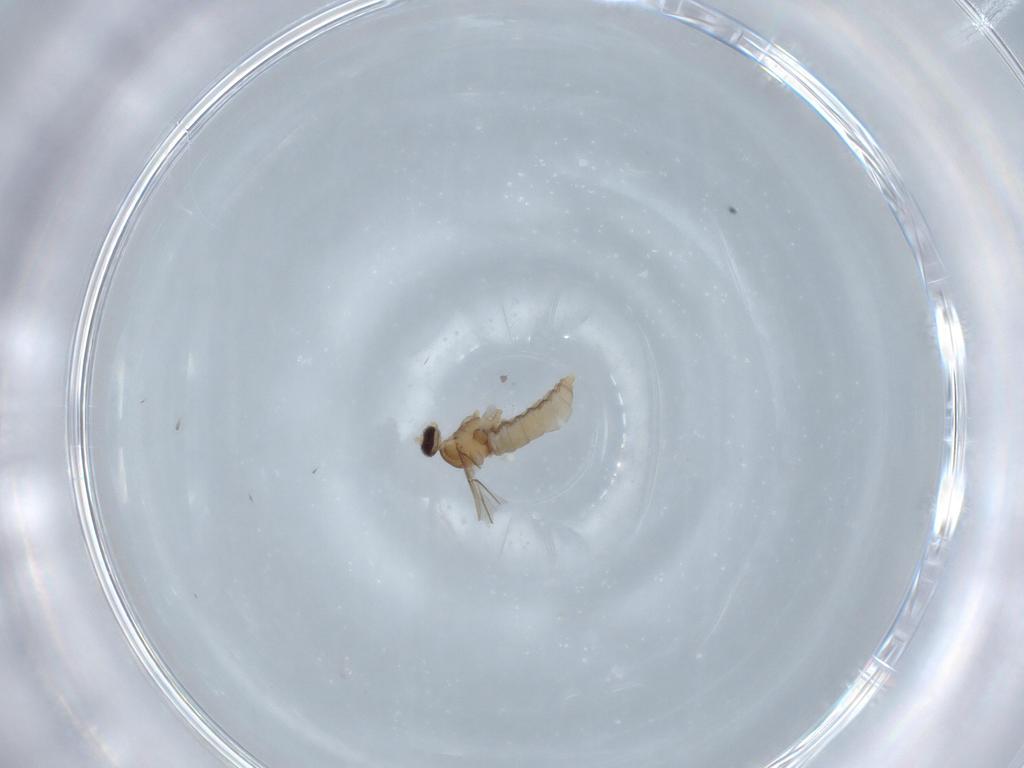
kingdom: Animalia
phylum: Arthropoda
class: Insecta
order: Diptera
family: Cecidomyiidae
